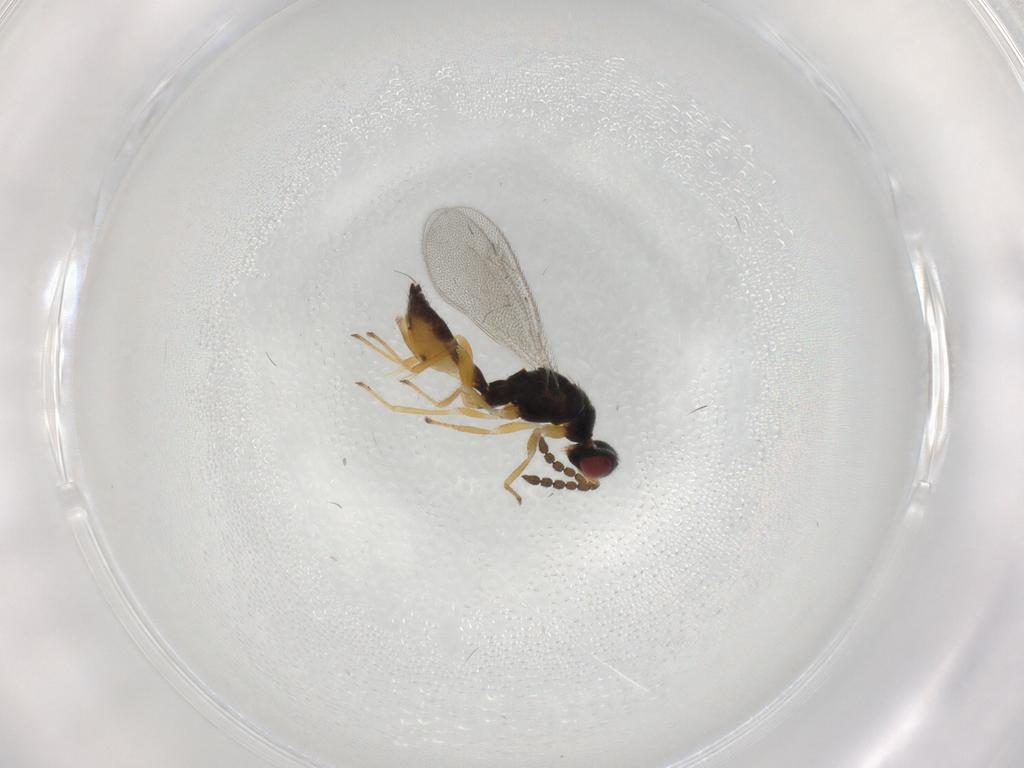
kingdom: Animalia
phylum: Arthropoda
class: Insecta
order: Hymenoptera
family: Eulophidae
